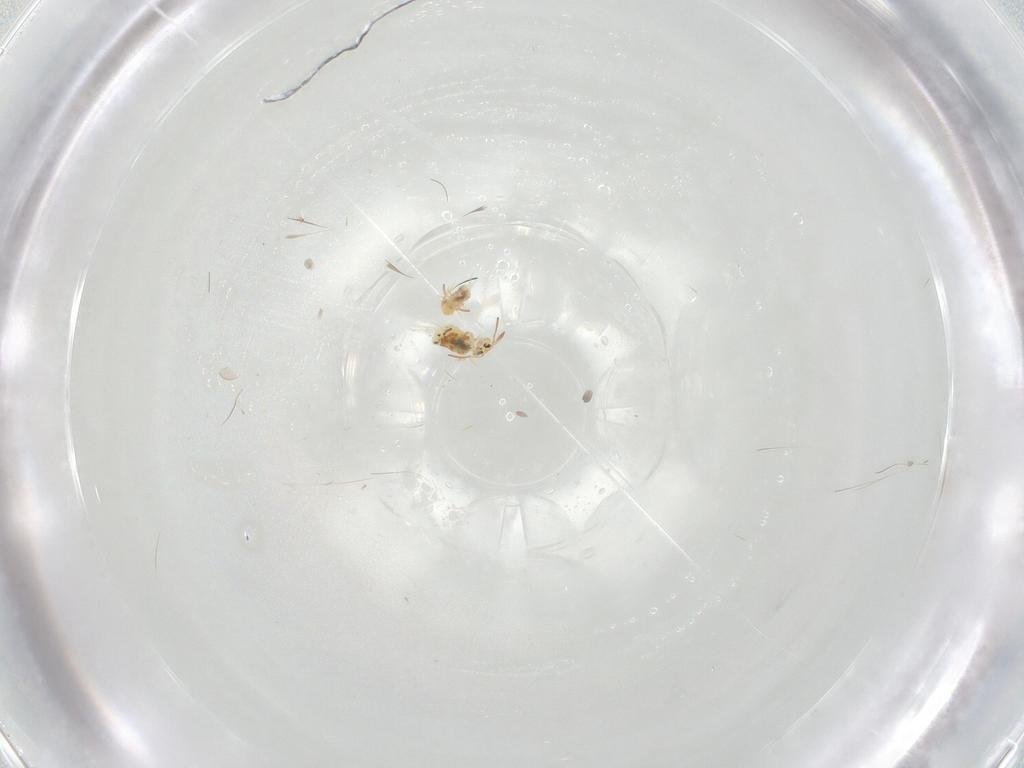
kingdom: Animalia
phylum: Arthropoda
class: Collembola
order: Symphypleona
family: Bourletiellidae
